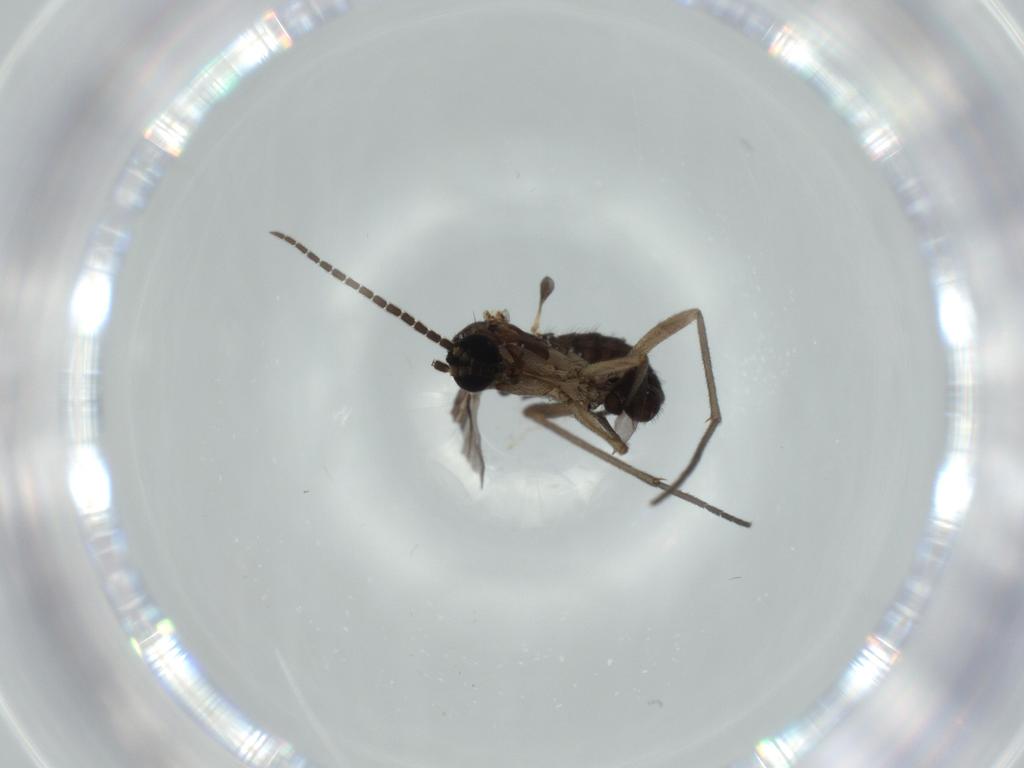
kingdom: Animalia
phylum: Arthropoda
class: Insecta
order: Diptera
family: Sciaridae
